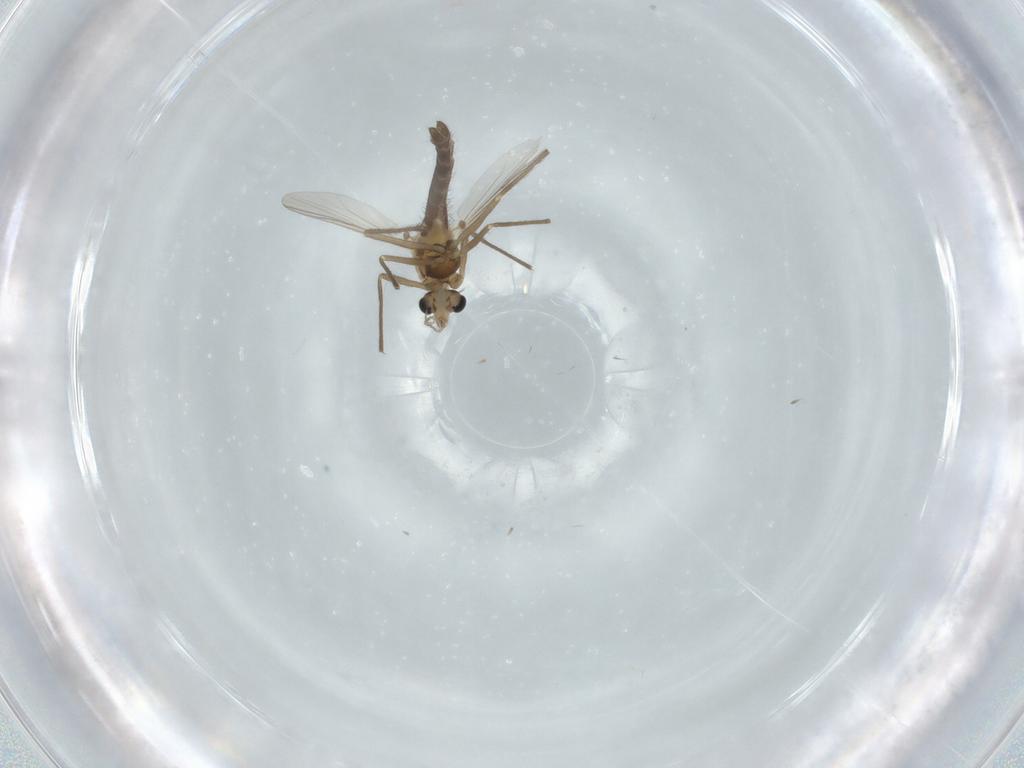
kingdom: Animalia
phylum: Arthropoda
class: Insecta
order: Diptera
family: Chironomidae
